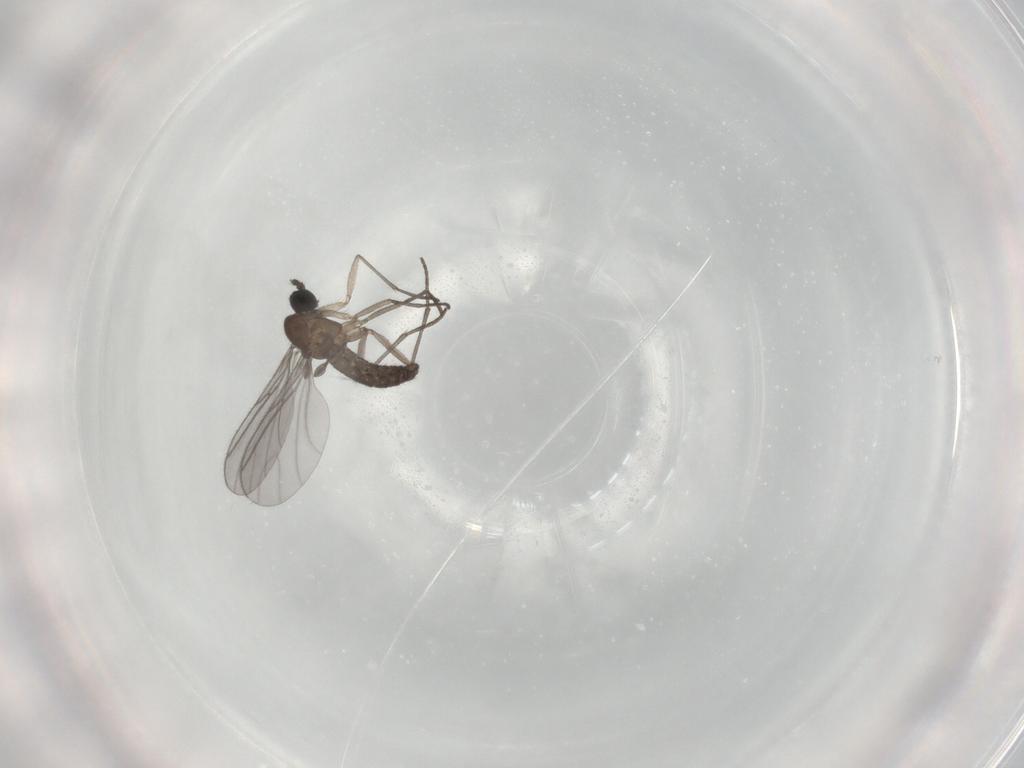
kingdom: Animalia
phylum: Arthropoda
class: Insecta
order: Diptera
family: Sciaridae
